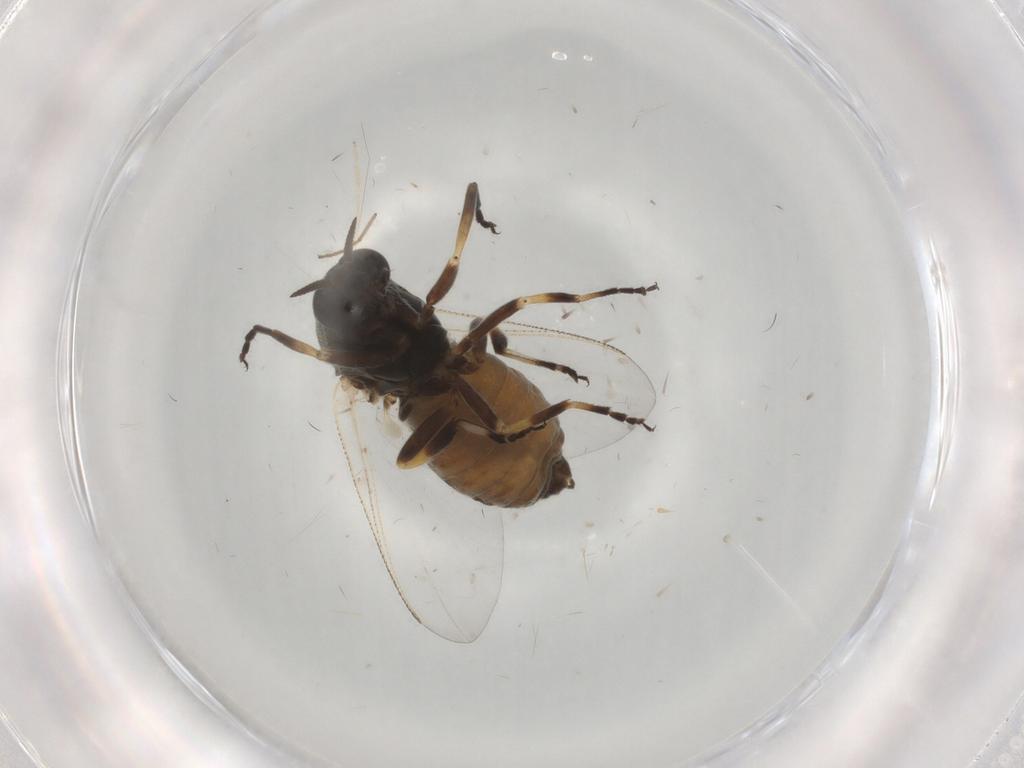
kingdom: Animalia
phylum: Arthropoda
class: Insecta
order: Diptera
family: Simuliidae
